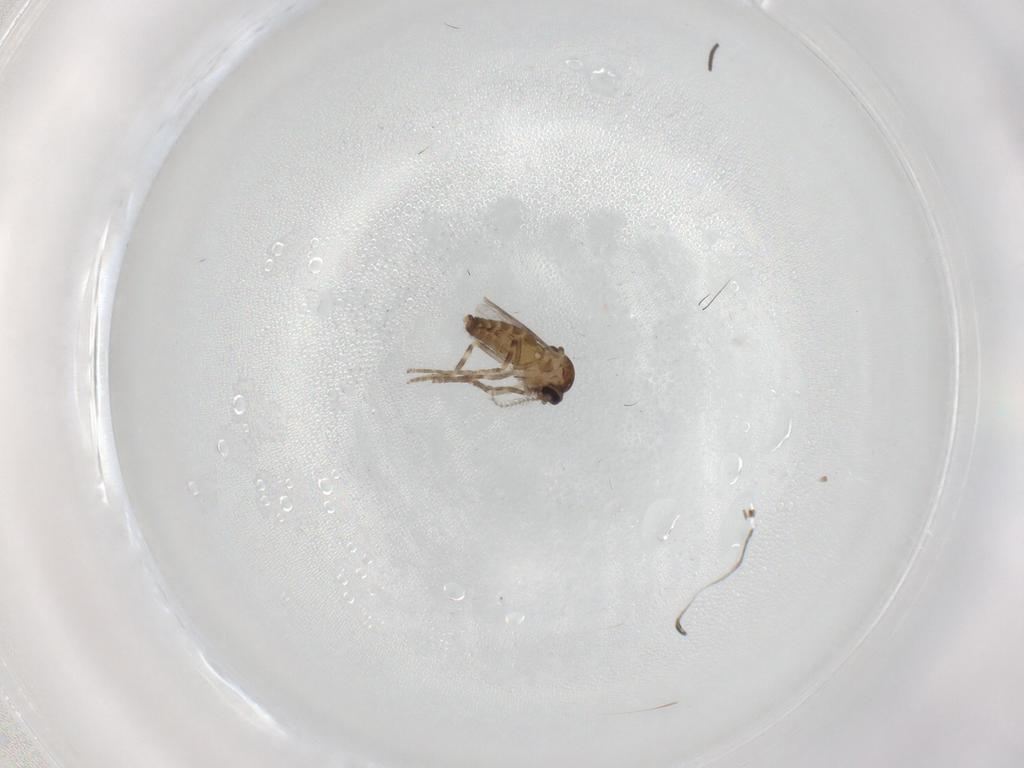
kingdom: Animalia
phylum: Arthropoda
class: Insecta
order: Diptera
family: Ceratopogonidae
